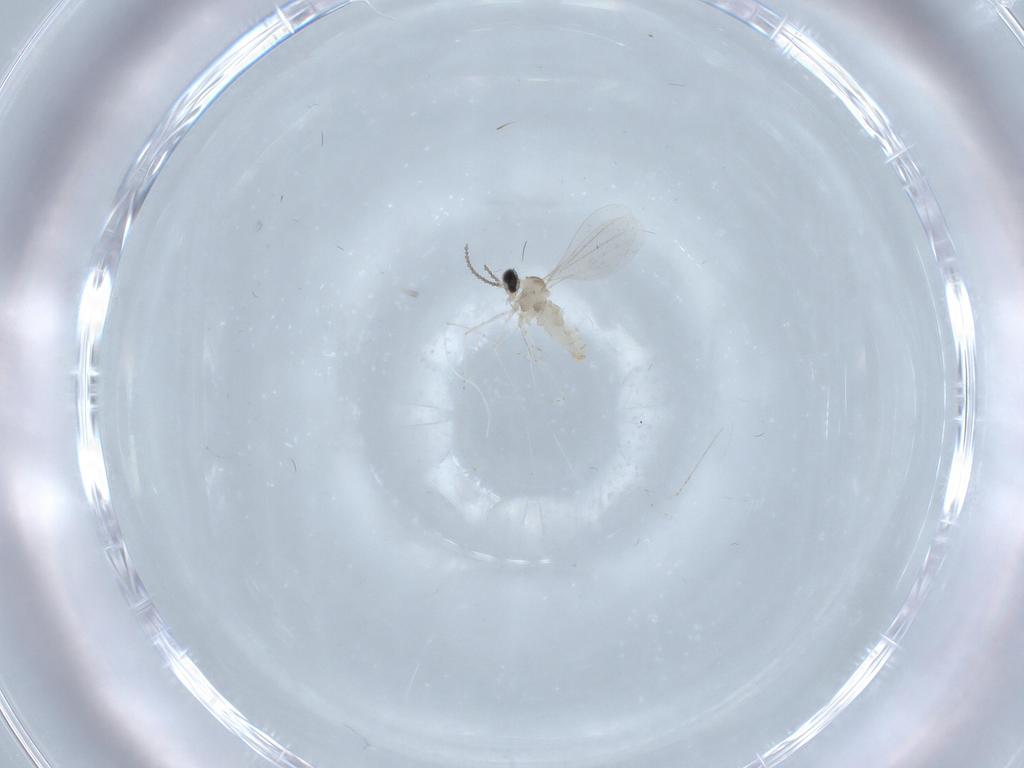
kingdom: Animalia
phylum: Arthropoda
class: Insecta
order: Diptera
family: Cecidomyiidae
